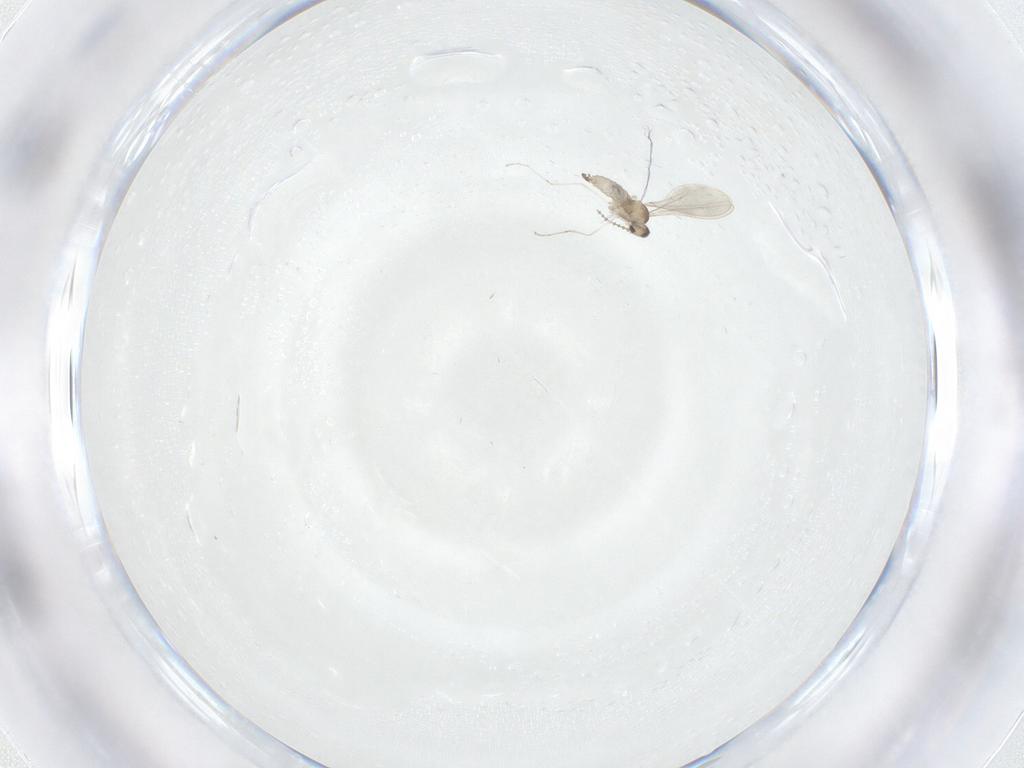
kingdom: Animalia
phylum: Arthropoda
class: Insecta
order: Diptera
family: Cecidomyiidae
